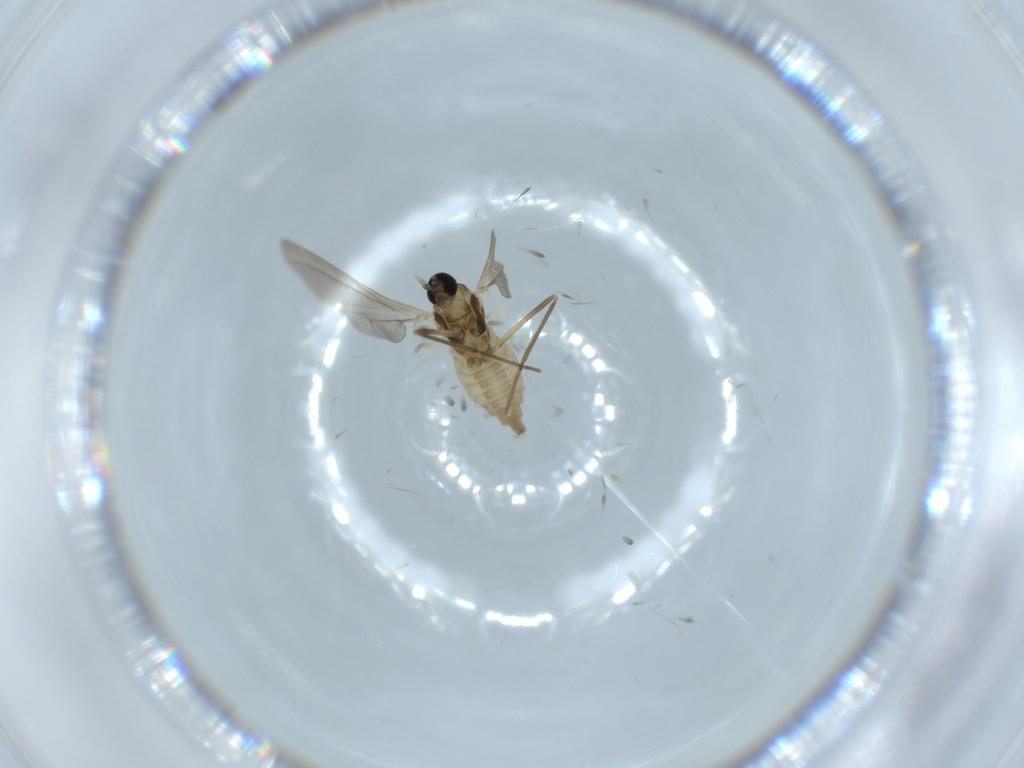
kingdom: Animalia
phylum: Arthropoda
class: Insecta
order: Diptera
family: Cecidomyiidae
